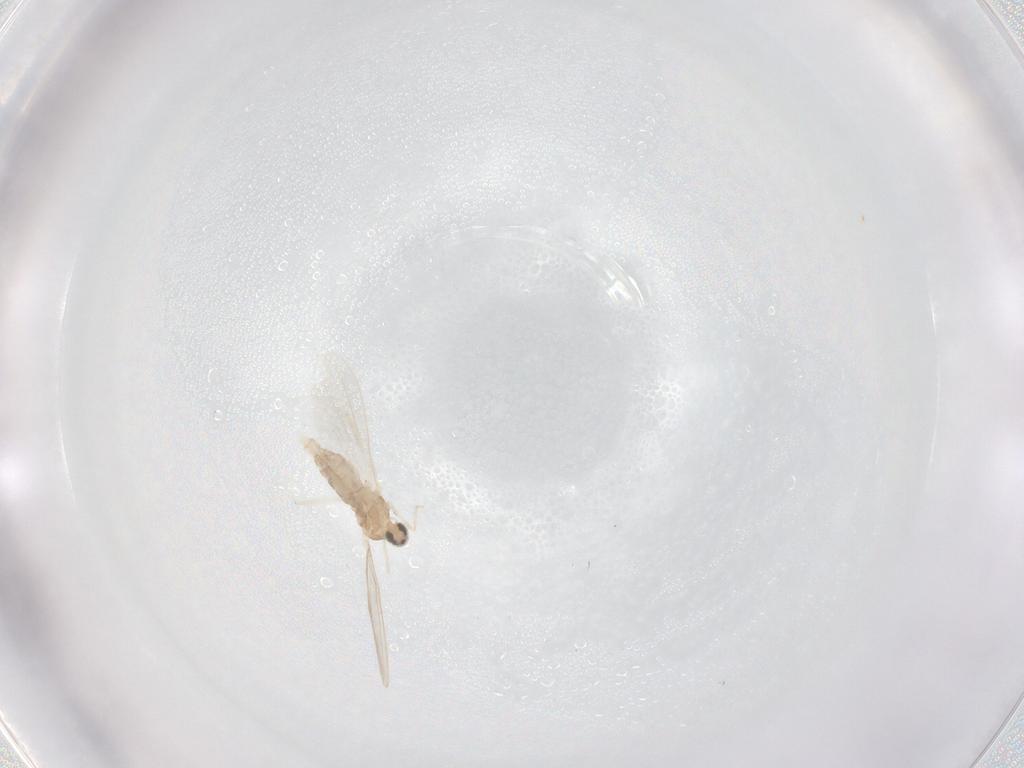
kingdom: Animalia
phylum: Arthropoda
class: Insecta
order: Diptera
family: Cecidomyiidae
